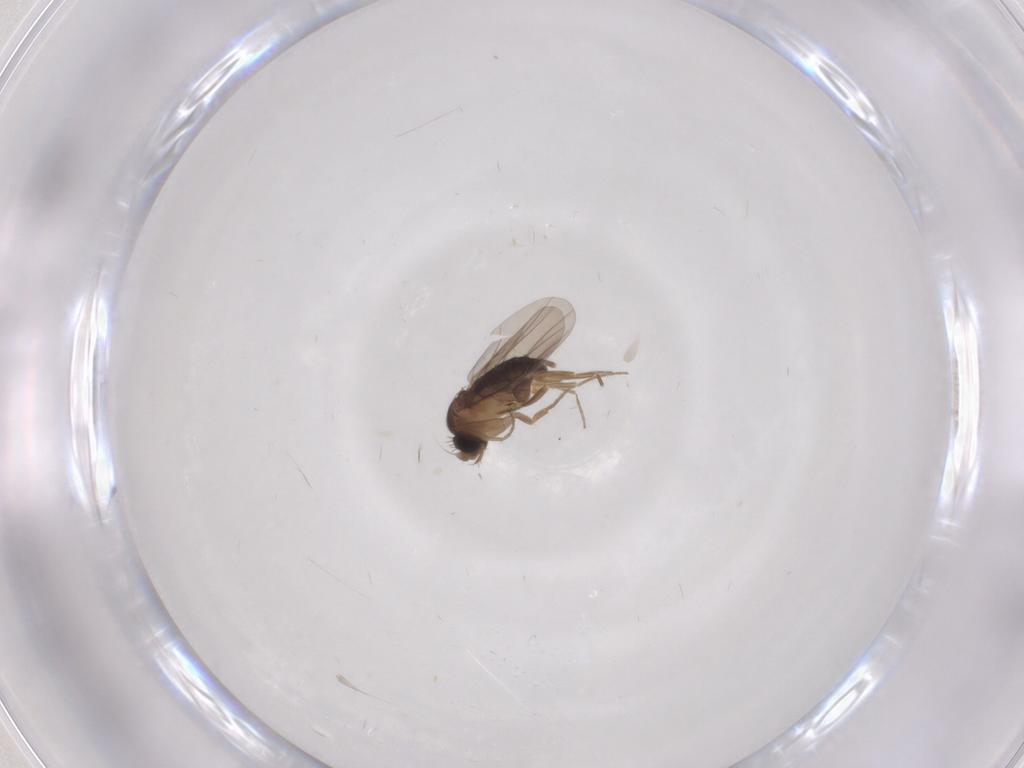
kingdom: Animalia
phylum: Arthropoda
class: Insecta
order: Diptera
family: Phoridae
